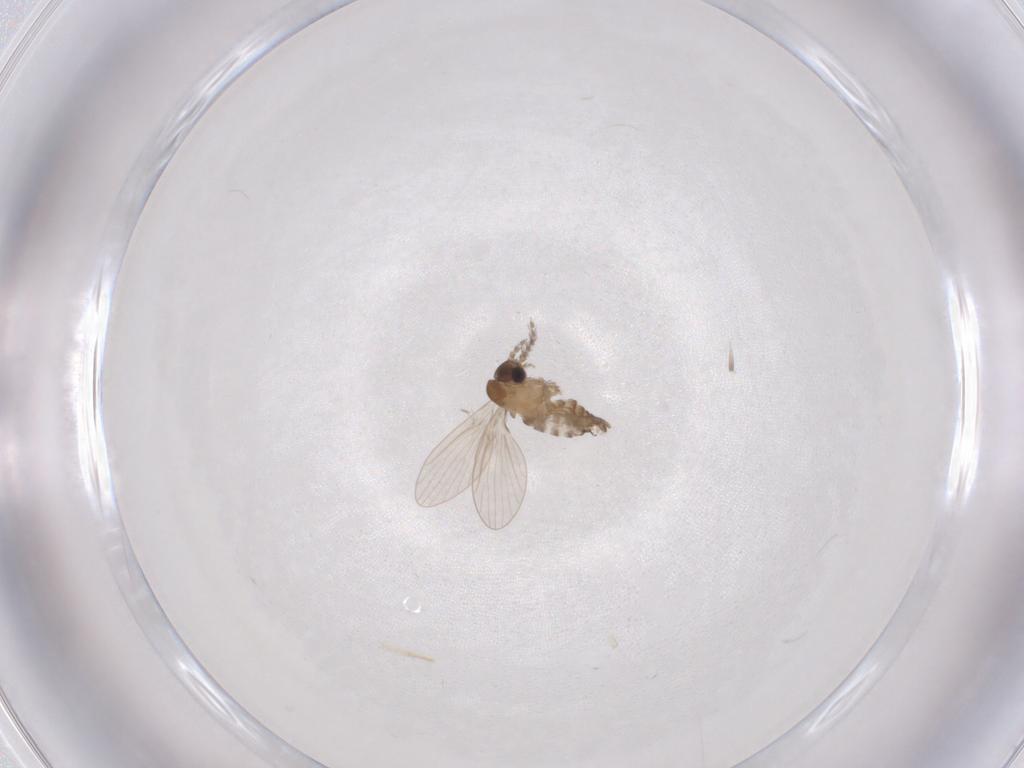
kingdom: Animalia
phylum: Arthropoda
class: Insecta
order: Diptera
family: Psychodidae
